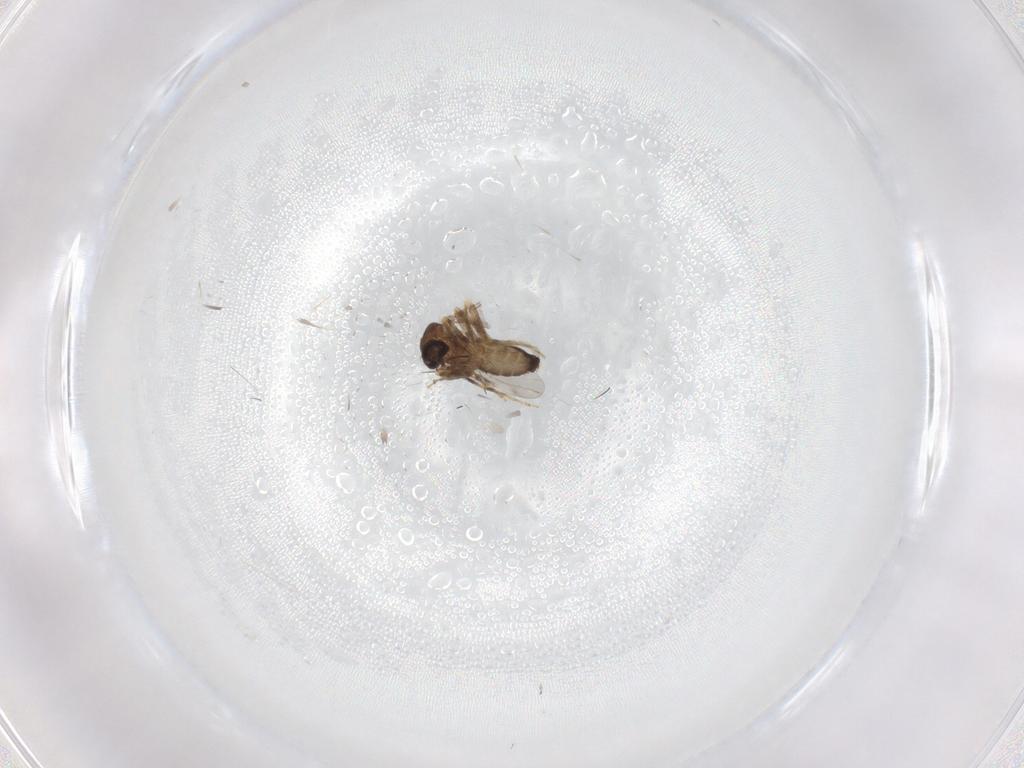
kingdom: Animalia
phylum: Arthropoda
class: Insecta
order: Diptera
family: Ceratopogonidae
